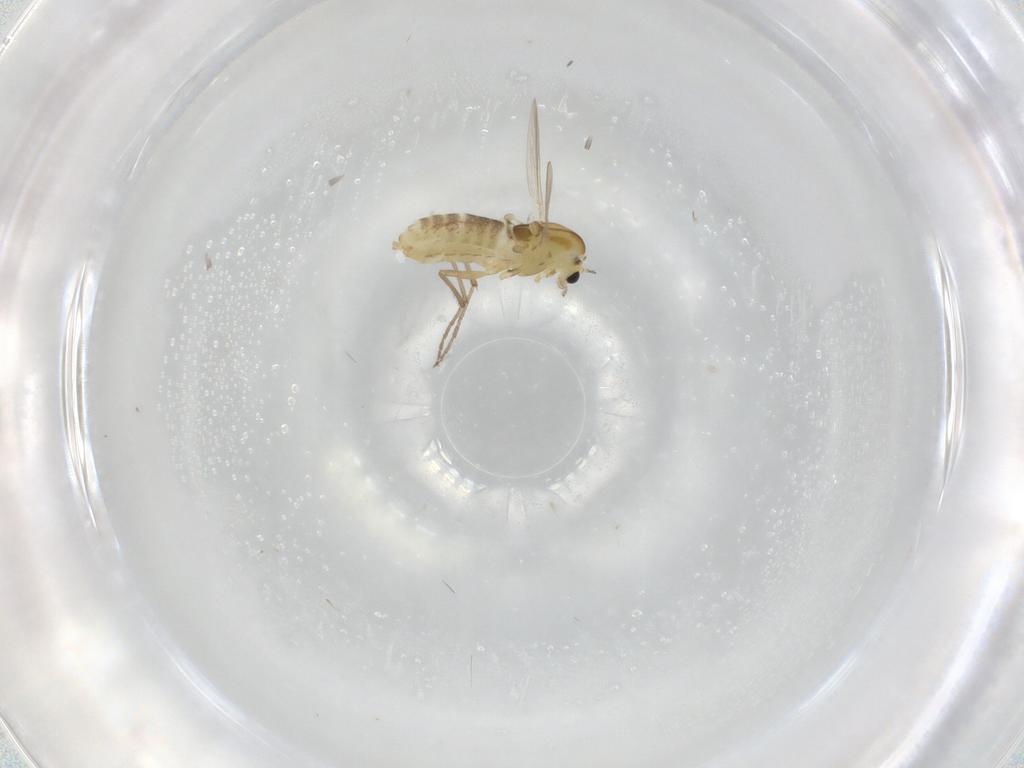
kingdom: Animalia
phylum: Arthropoda
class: Insecta
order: Diptera
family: Chironomidae
